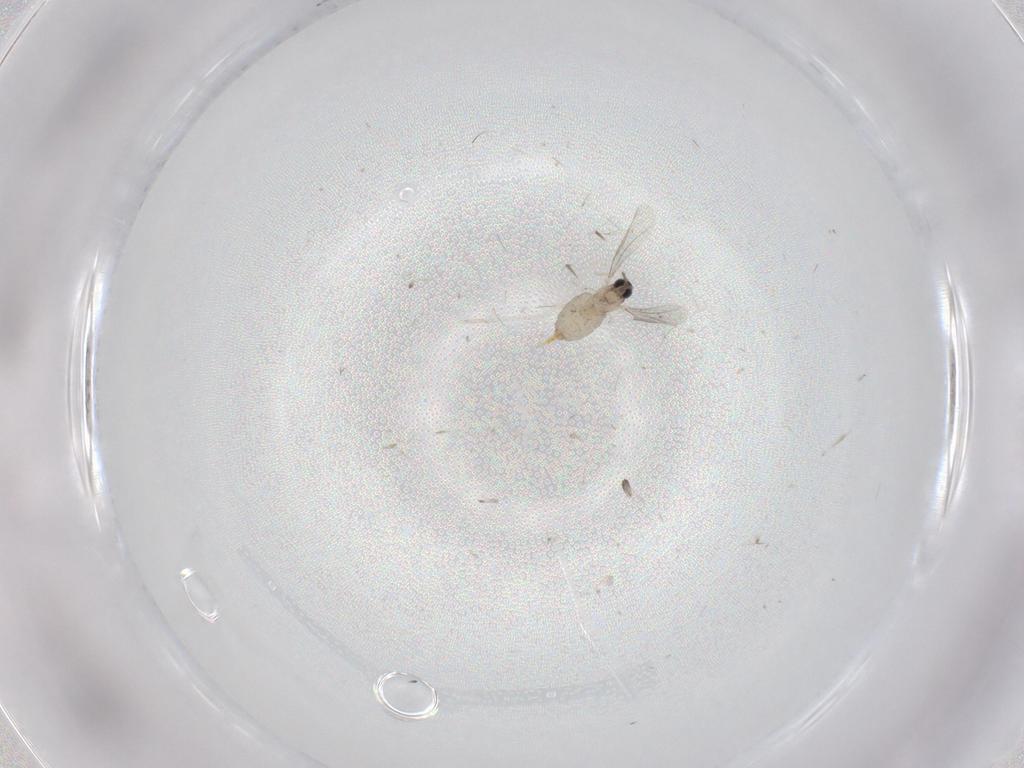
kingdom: Animalia
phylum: Arthropoda
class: Insecta
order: Diptera
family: Cecidomyiidae
